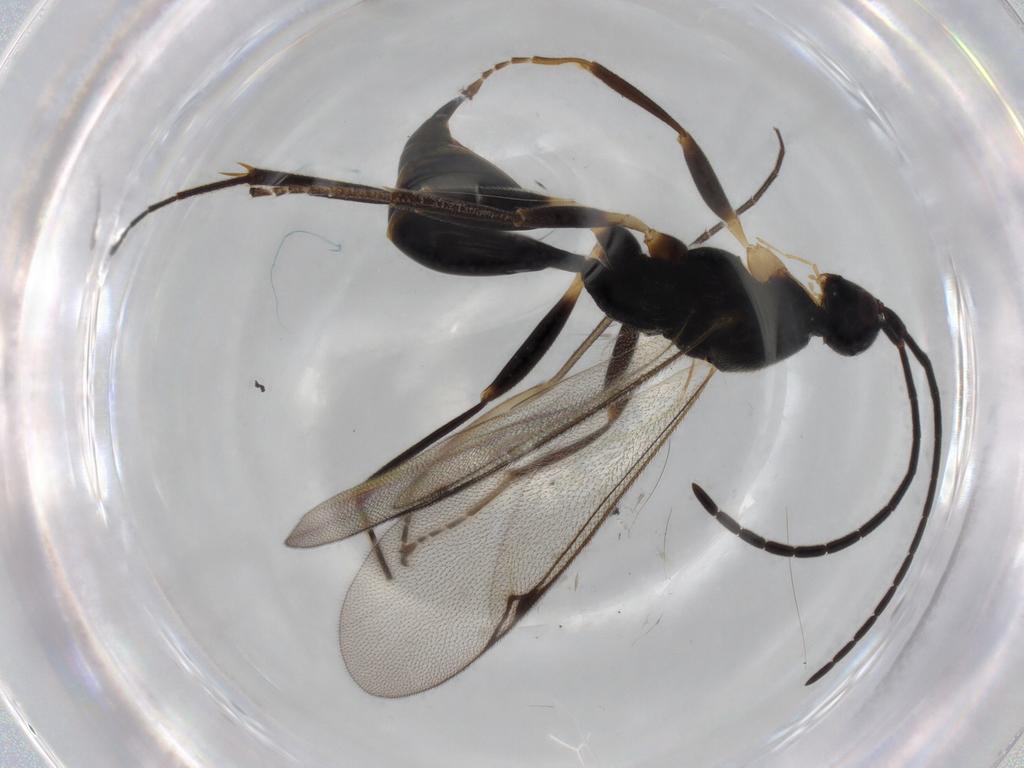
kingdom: Animalia
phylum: Arthropoda
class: Insecta
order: Hymenoptera
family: Proctotrupidae
